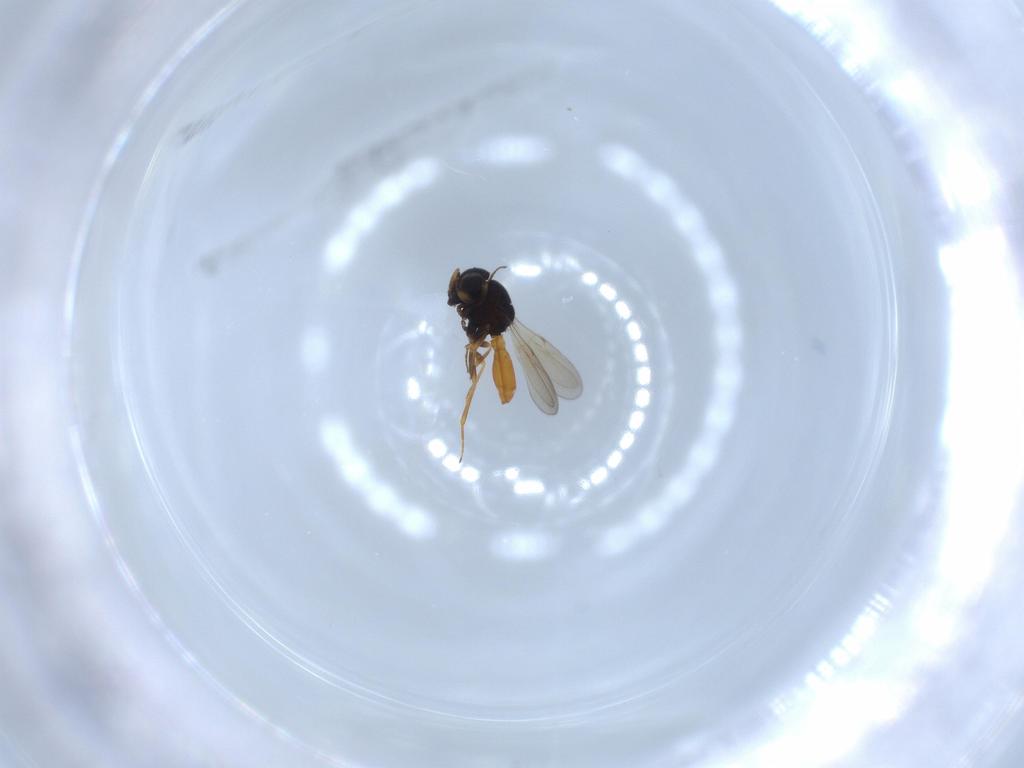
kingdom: Animalia
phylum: Arthropoda
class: Insecta
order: Hymenoptera
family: Scelionidae
